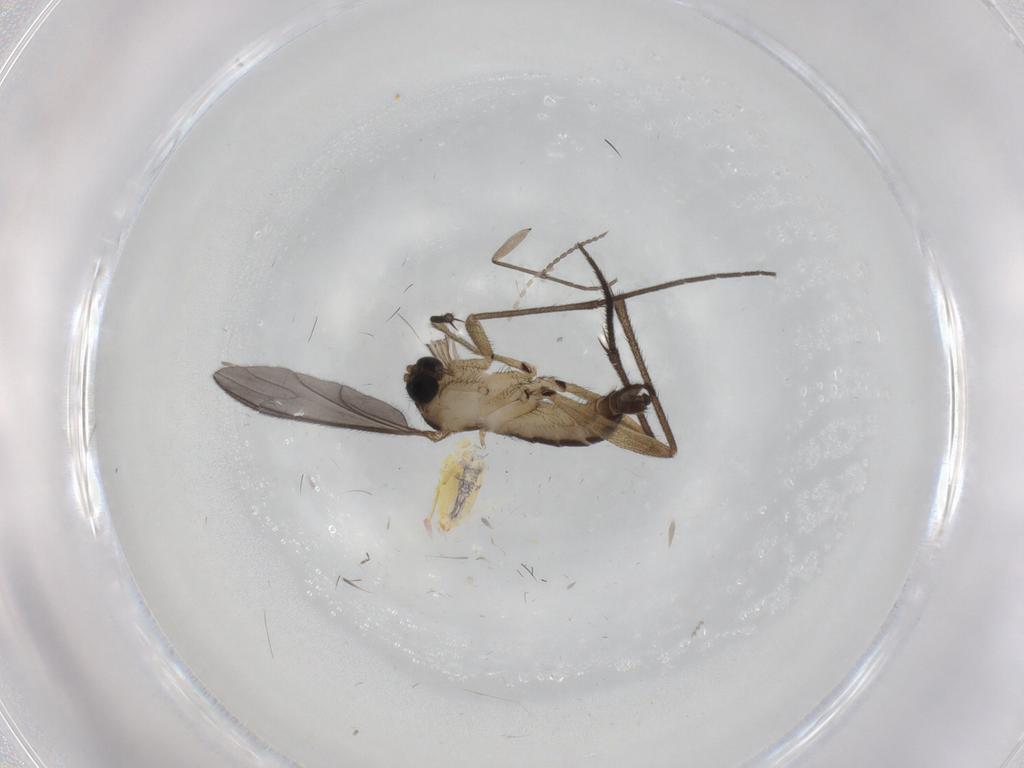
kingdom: Animalia
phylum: Arthropoda
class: Insecta
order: Diptera
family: Sciaridae
